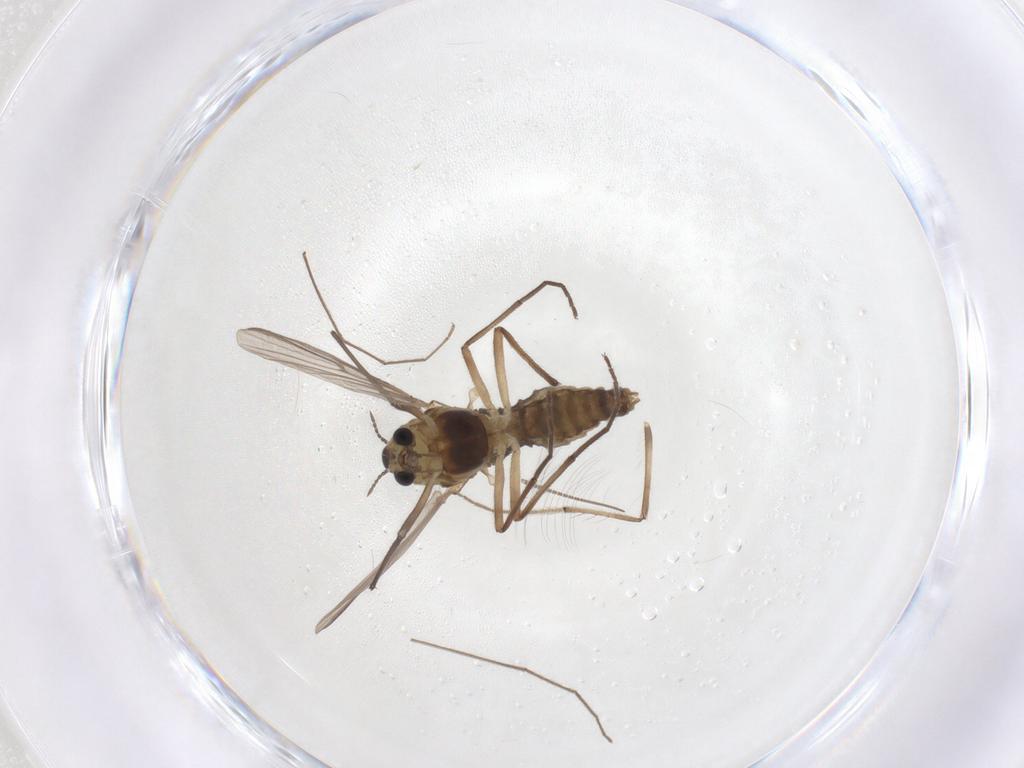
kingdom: Animalia
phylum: Arthropoda
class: Insecta
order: Diptera
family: Chironomidae
